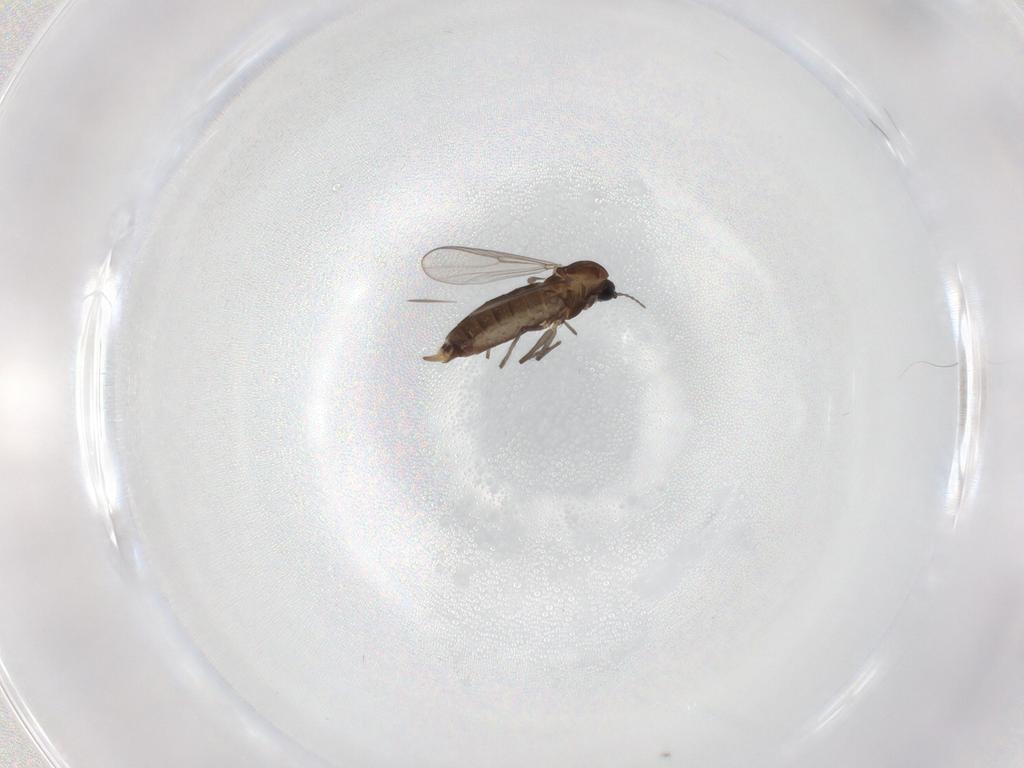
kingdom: Animalia
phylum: Arthropoda
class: Insecta
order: Diptera
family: Chironomidae
